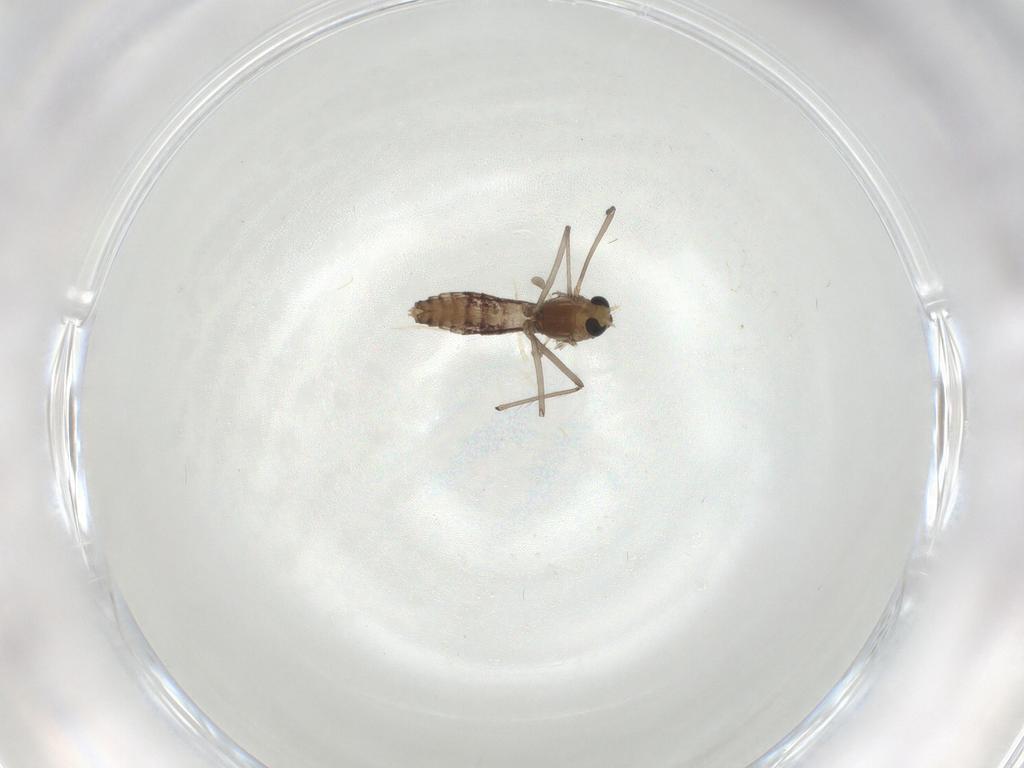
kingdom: Animalia
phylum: Arthropoda
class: Insecta
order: Diptera
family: Chironomidae
